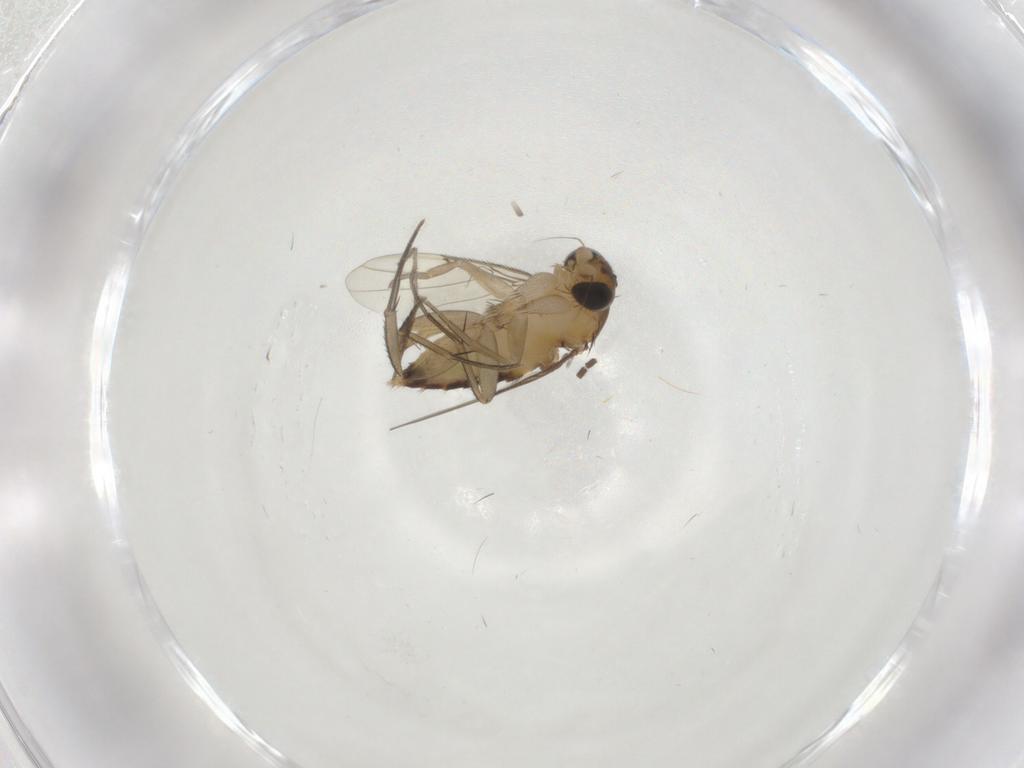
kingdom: Animalia
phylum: Arthropoda
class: Insecta
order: Diptera
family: Phoridae
